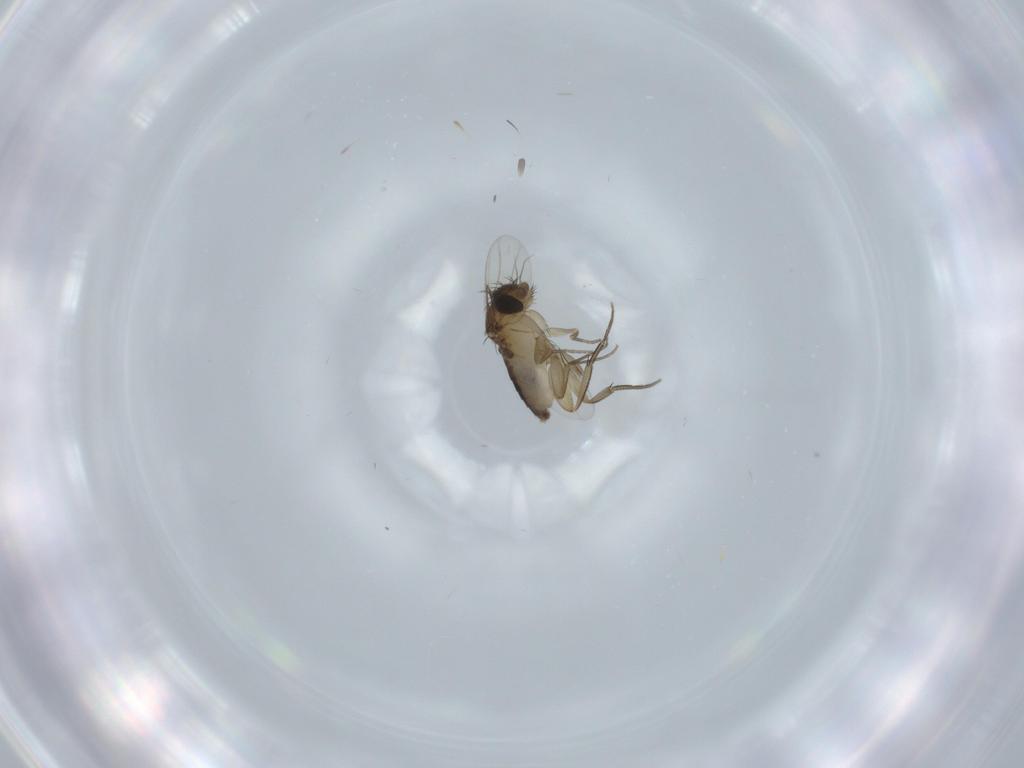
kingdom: Animalia
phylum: Arthropoda
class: Insecta
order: Diptera
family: Phoridae
